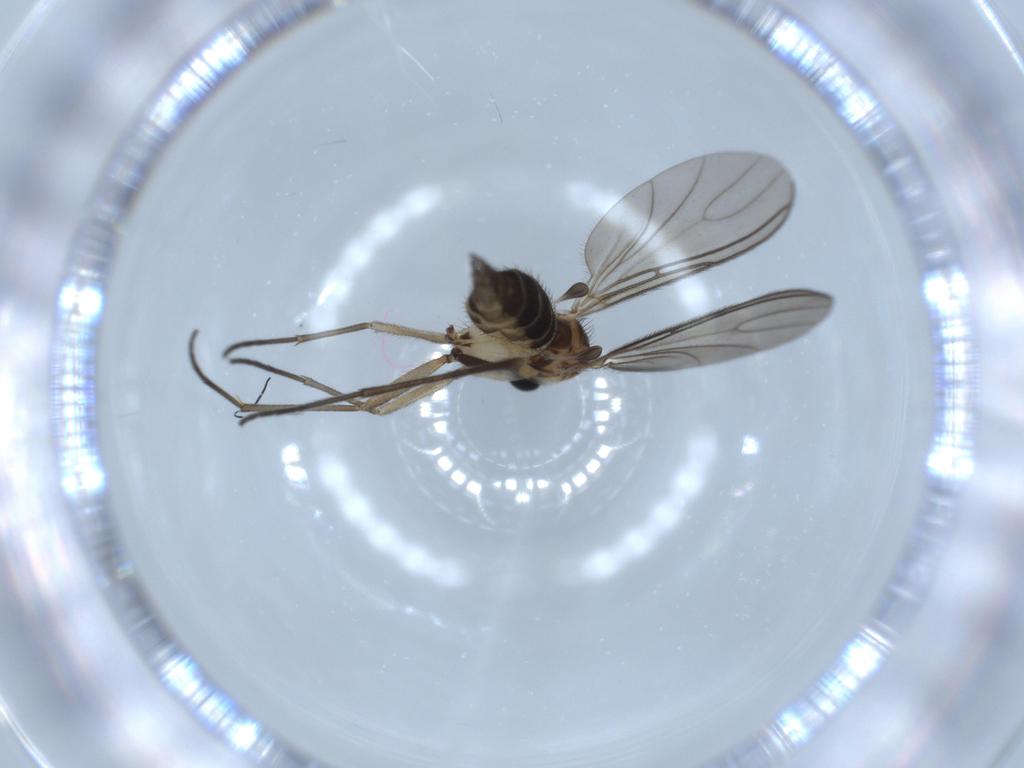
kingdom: Animalia
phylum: Arthropoda
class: Insecta
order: Diptera
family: Sciaridae
